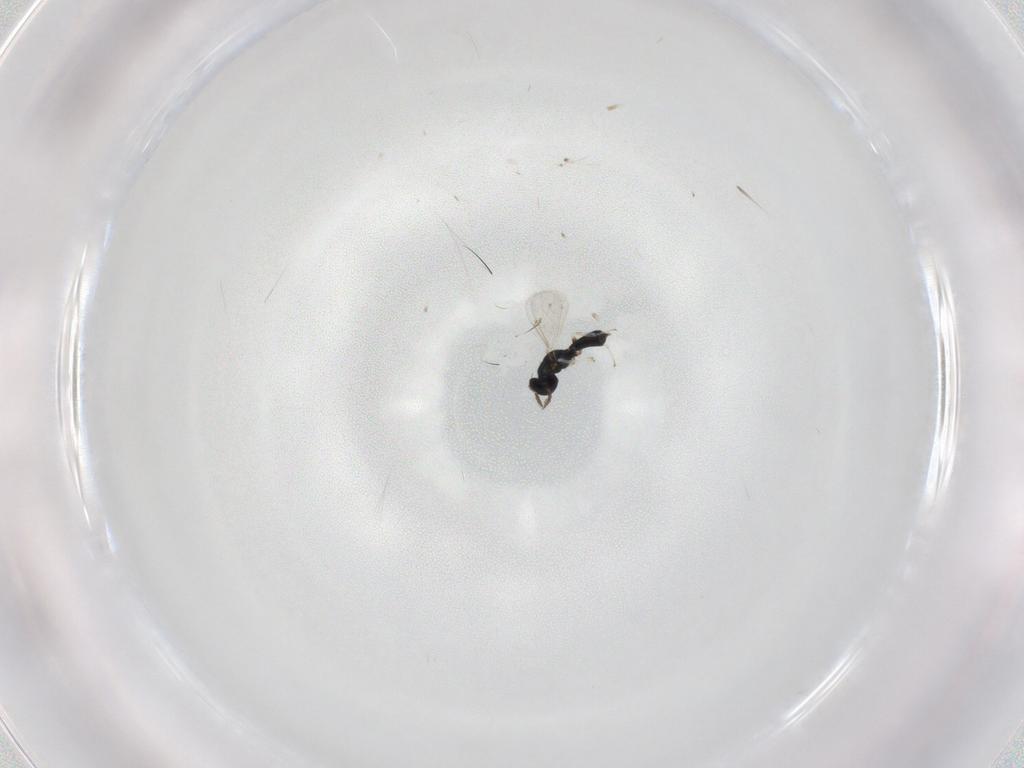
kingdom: Animalia
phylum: Arthropoda
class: Insecta
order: Hymenoptera
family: Eulophidae
